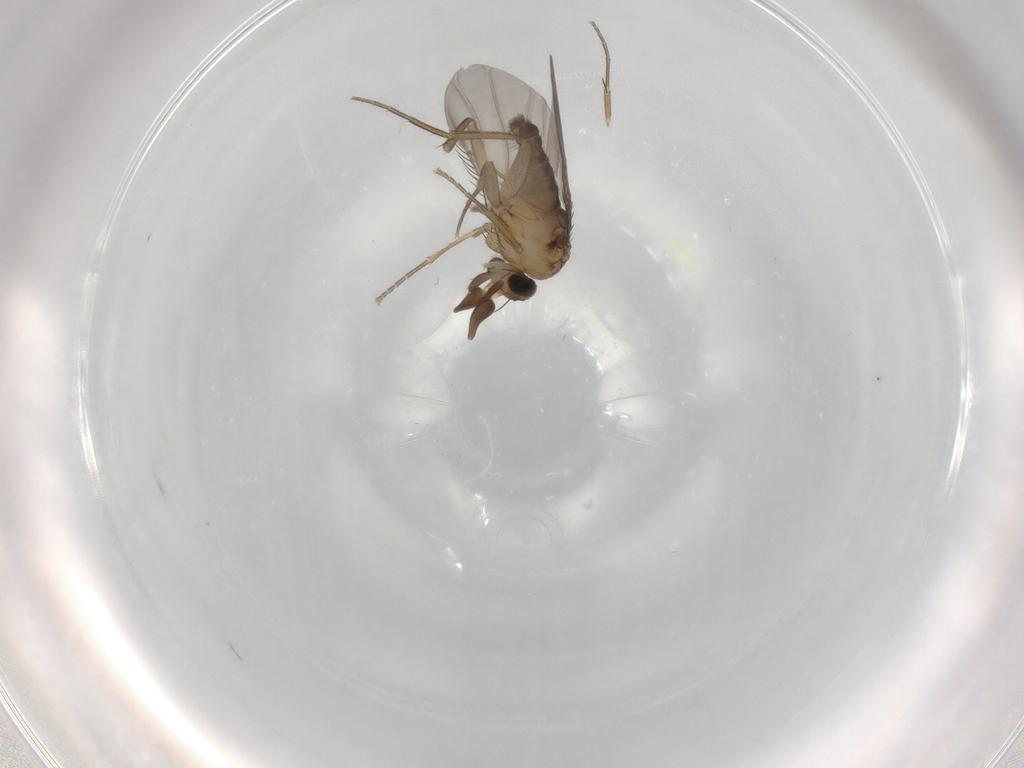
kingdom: Animalia
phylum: Arthropoda
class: Insecta
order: Diptera
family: Phoridae
